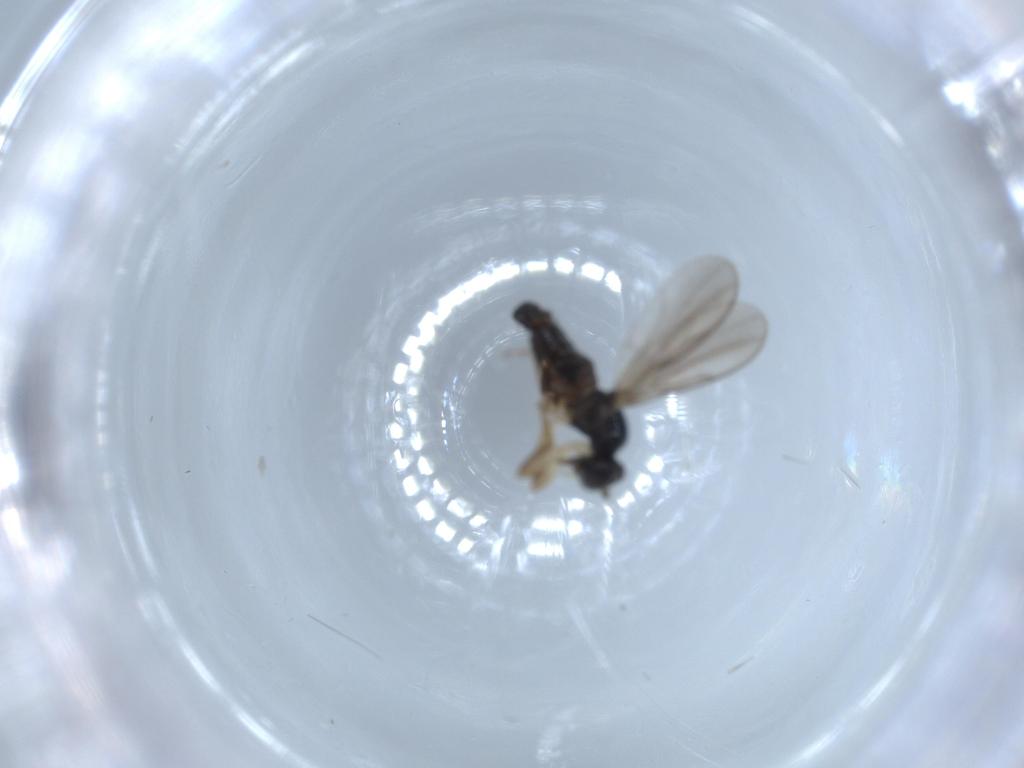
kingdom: Animalia
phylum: Arthropoda
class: Insecta
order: Diptera
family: Hybotidae
